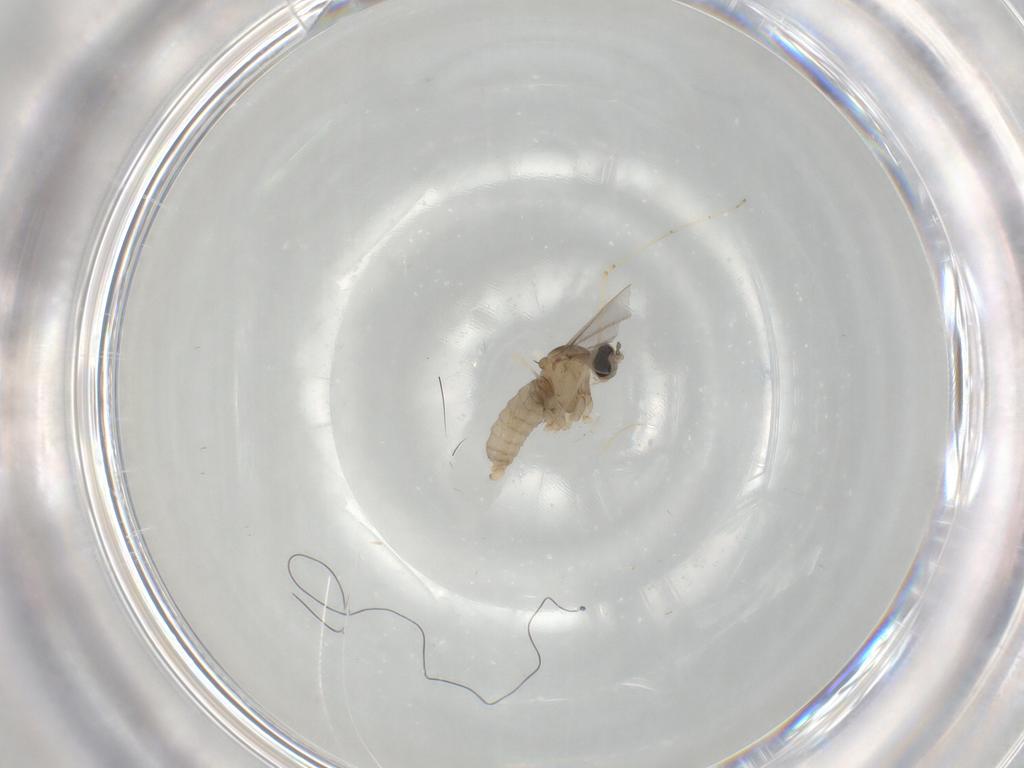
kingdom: Animalia
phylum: Arthropoda
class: Insecta
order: Diptera
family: Cecidomyiidae
